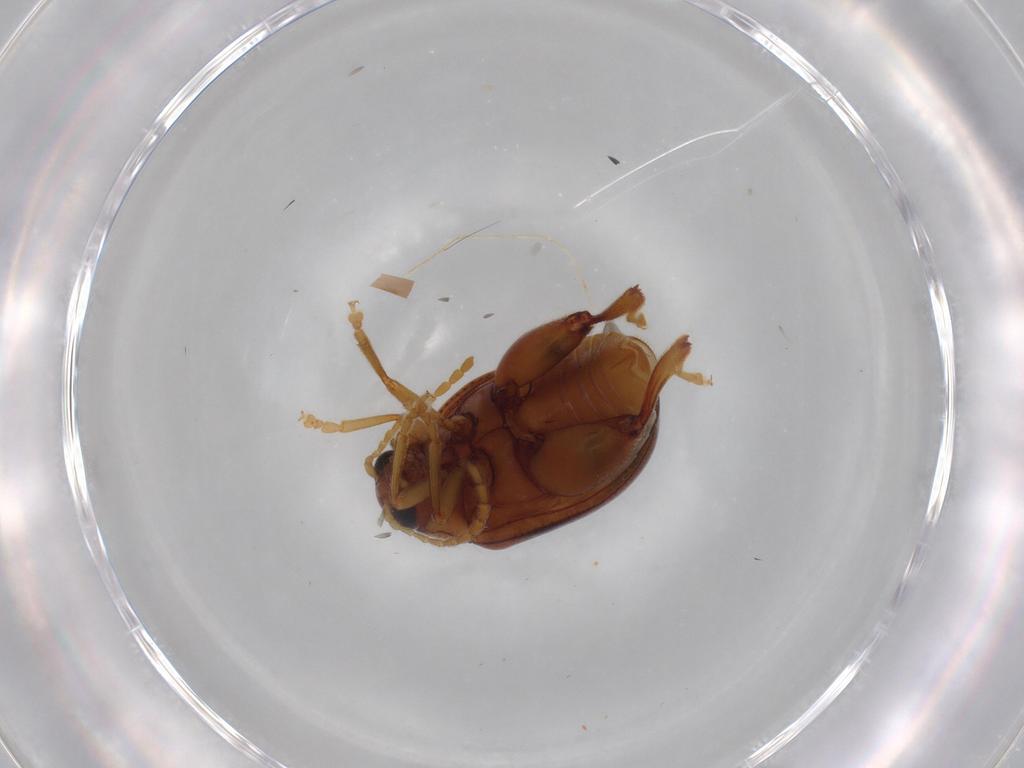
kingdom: Animalia
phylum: Arthropoda
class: Insecta
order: Coleoptera
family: Chrysomelidae
